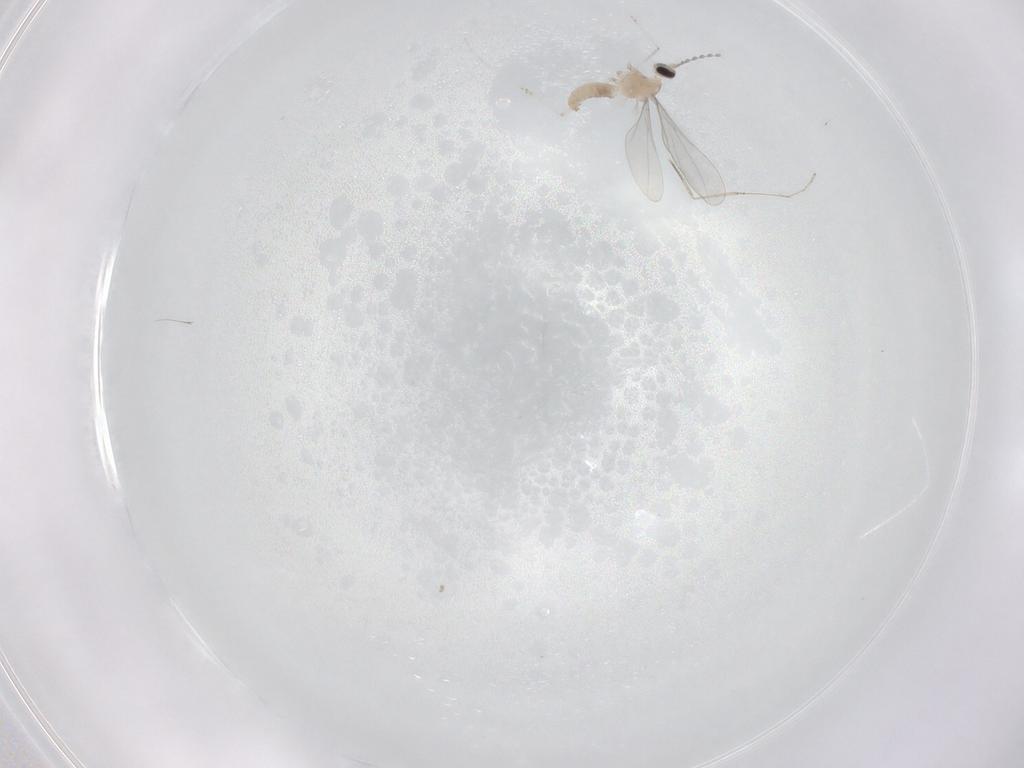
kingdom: Animalia
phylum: Arthropoda
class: Insecta
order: Diptera
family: Cecidomyiidae
